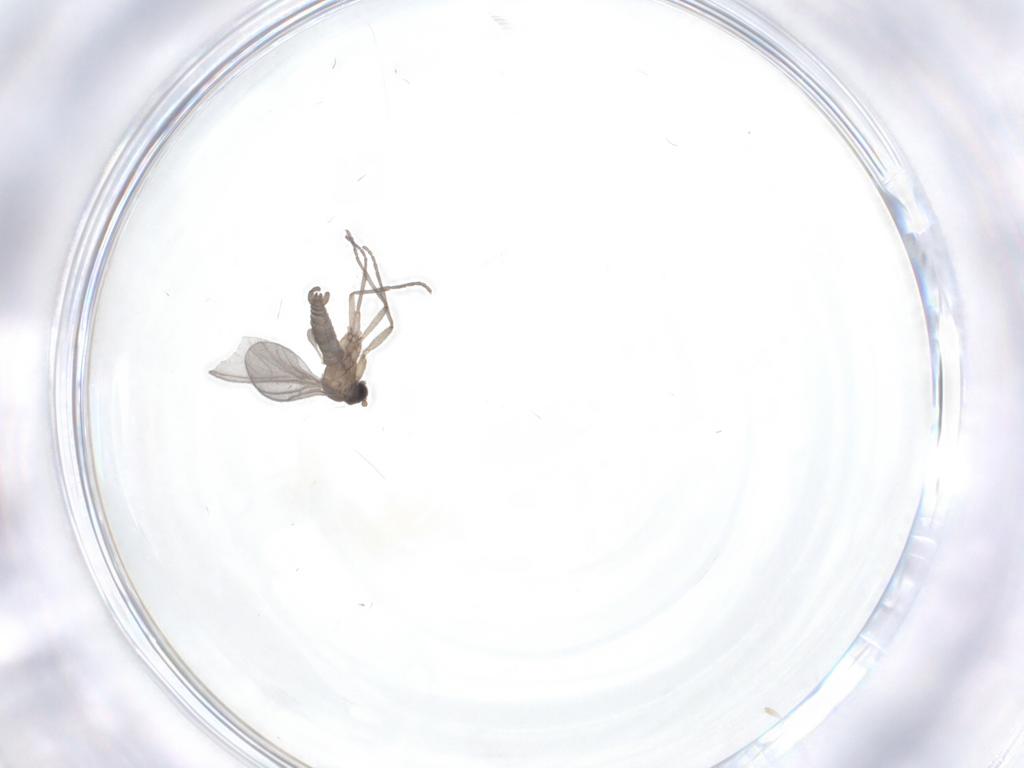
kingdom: Animalia
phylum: Arthropoda
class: Insecta
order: Diptera
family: Sciaridae
